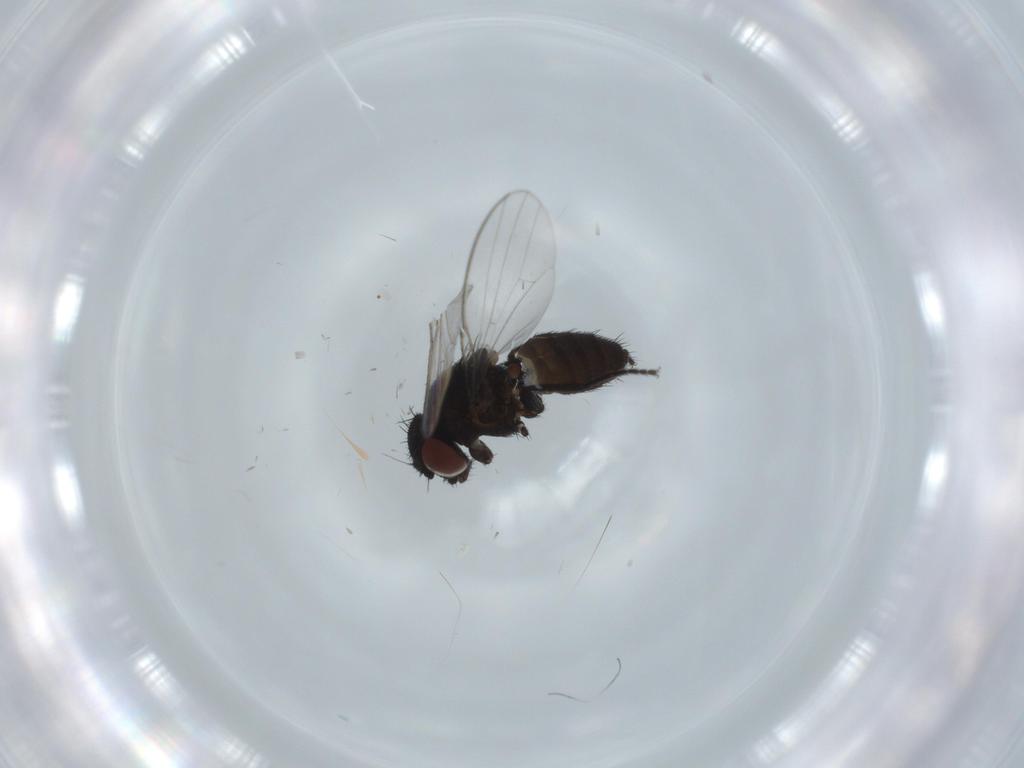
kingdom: Animalia
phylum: Arthropoda
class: Insecta
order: Diptera
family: Milichiidae
